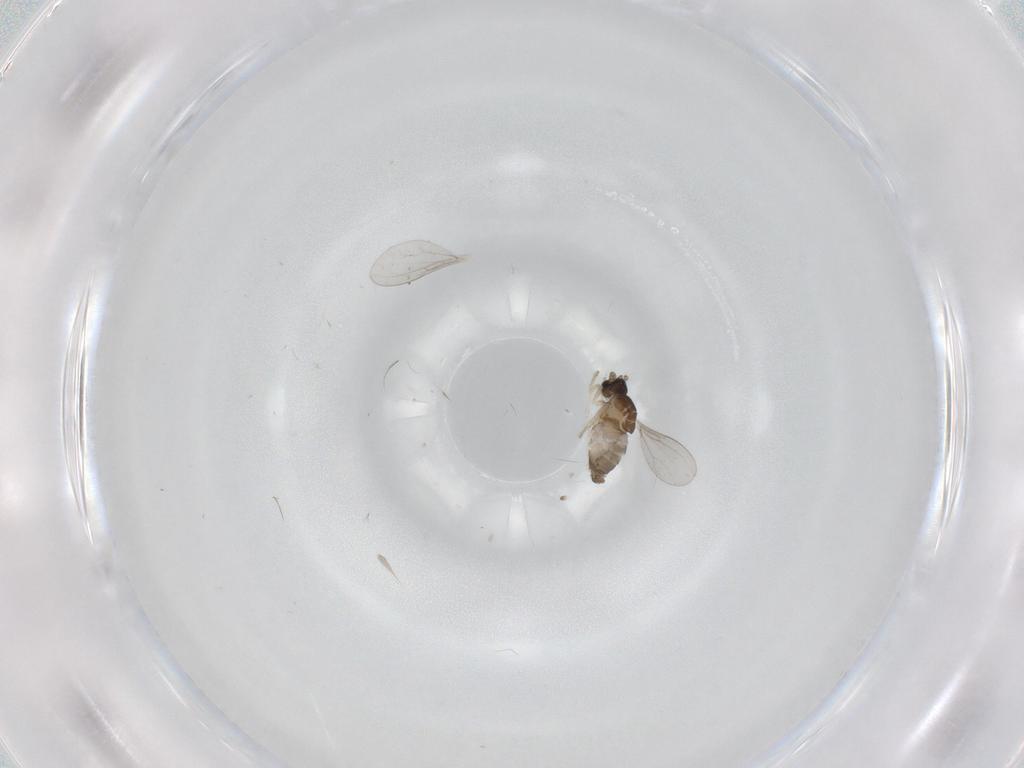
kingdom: Animalia
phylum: Arthropoda
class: Insecta
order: Diptera
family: Cecidomyiidae
